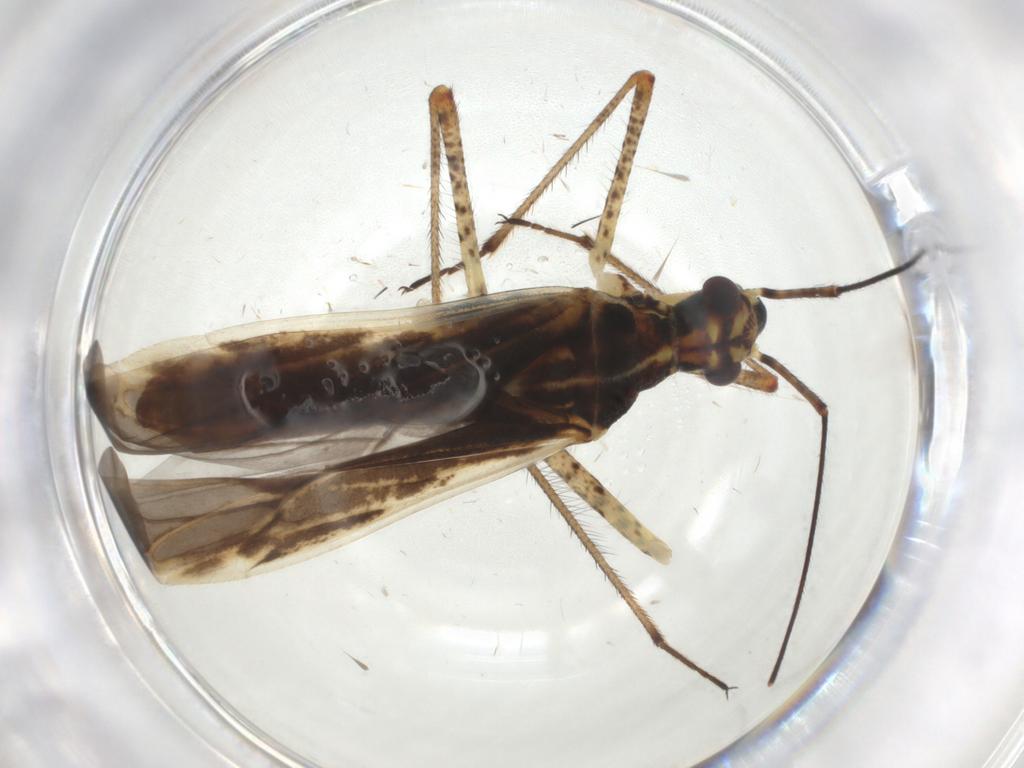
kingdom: Animalia
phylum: Arthropoda
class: Insecta
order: Hemiptera
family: Miridae
